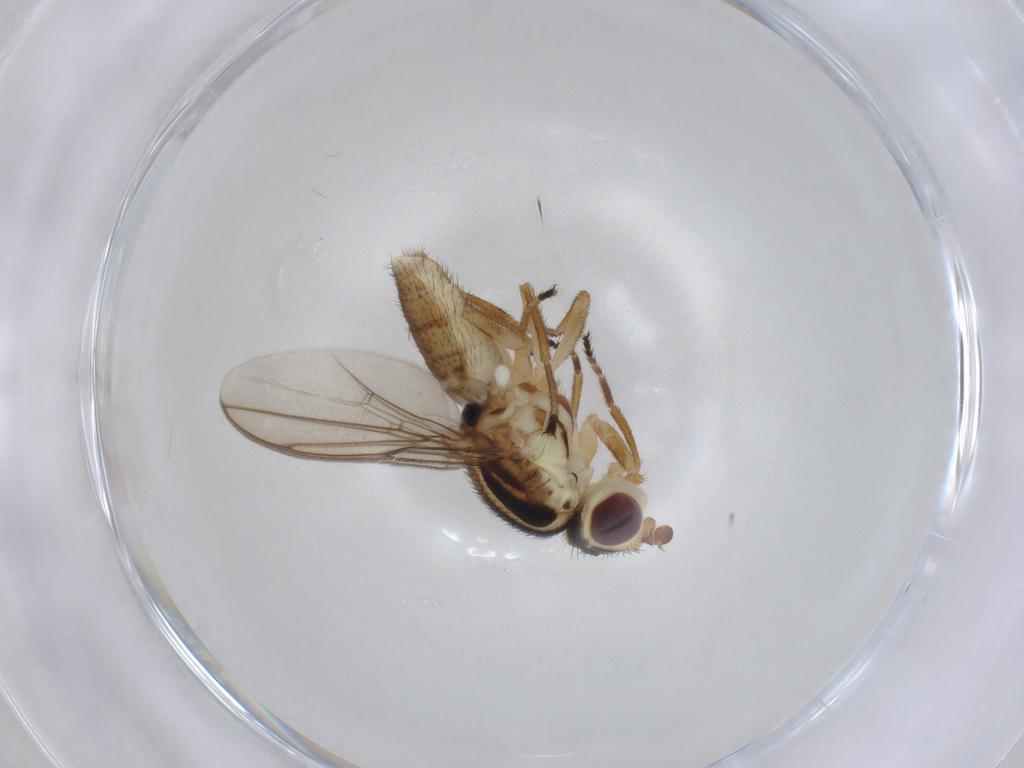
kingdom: Animalia
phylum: Arthropoda
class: Insecta
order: Diptera
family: Chloropidae
